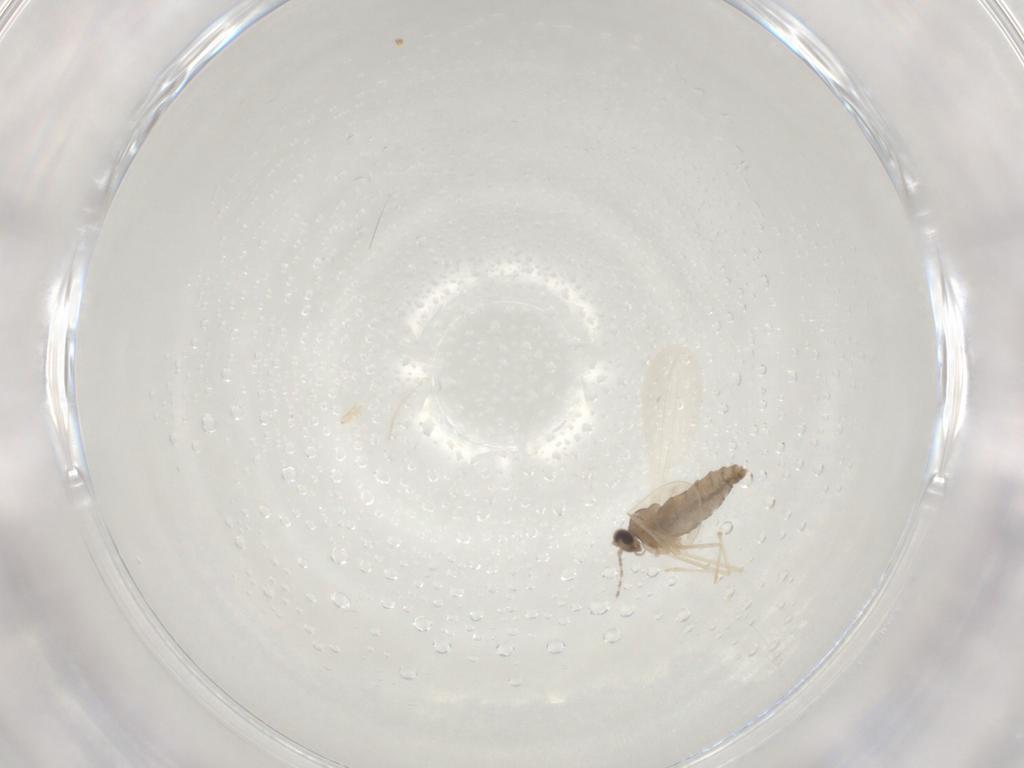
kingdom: Animalia
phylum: Arthropoda
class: Insecta
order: Diptera
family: Cecidomyiidae
